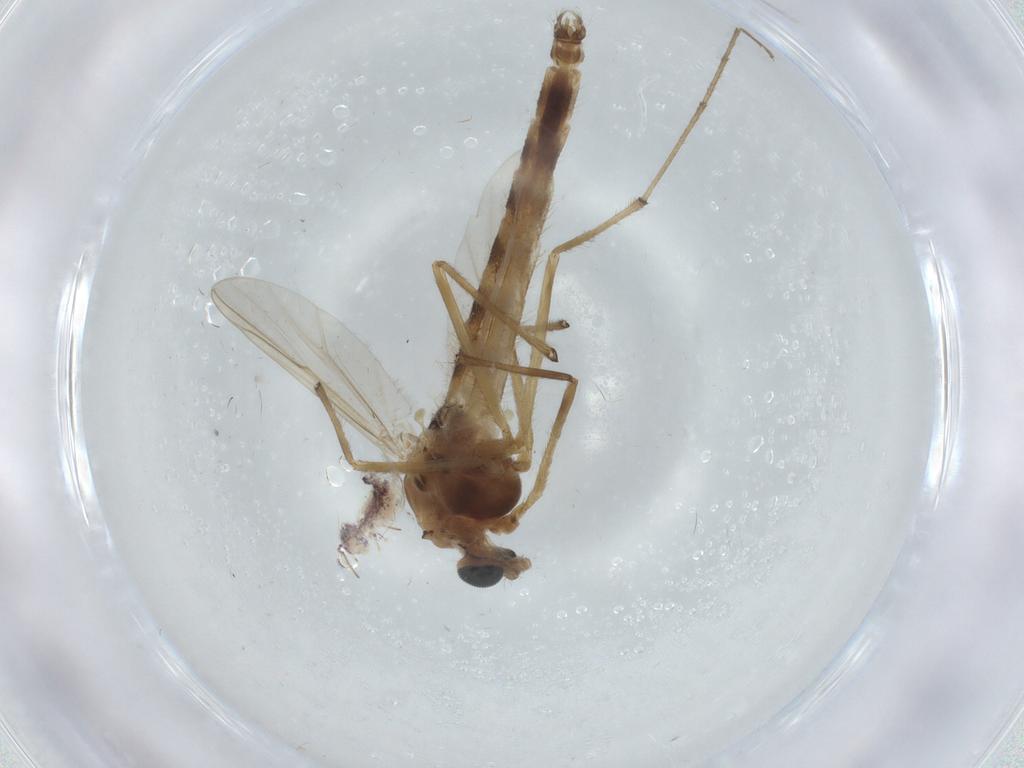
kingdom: Animalia
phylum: Arthropoda
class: Insecta
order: Diptera
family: Chironomidae
